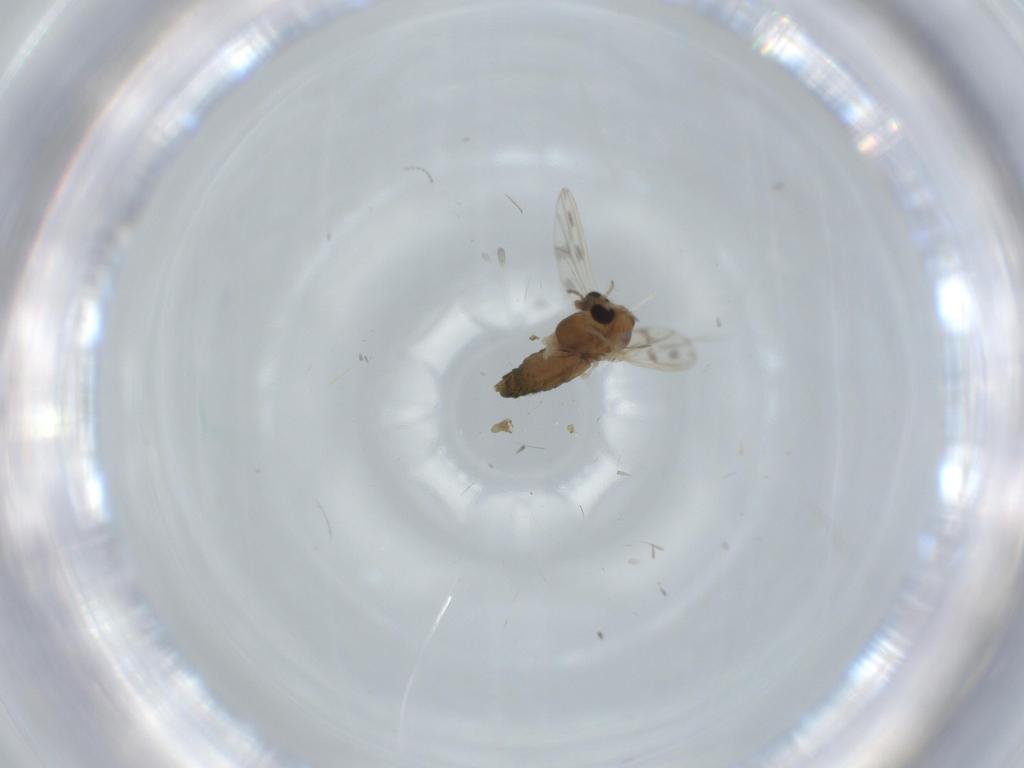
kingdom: Animalia
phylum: Arthropoda
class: Insecta
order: Diptera
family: Chironomidae
